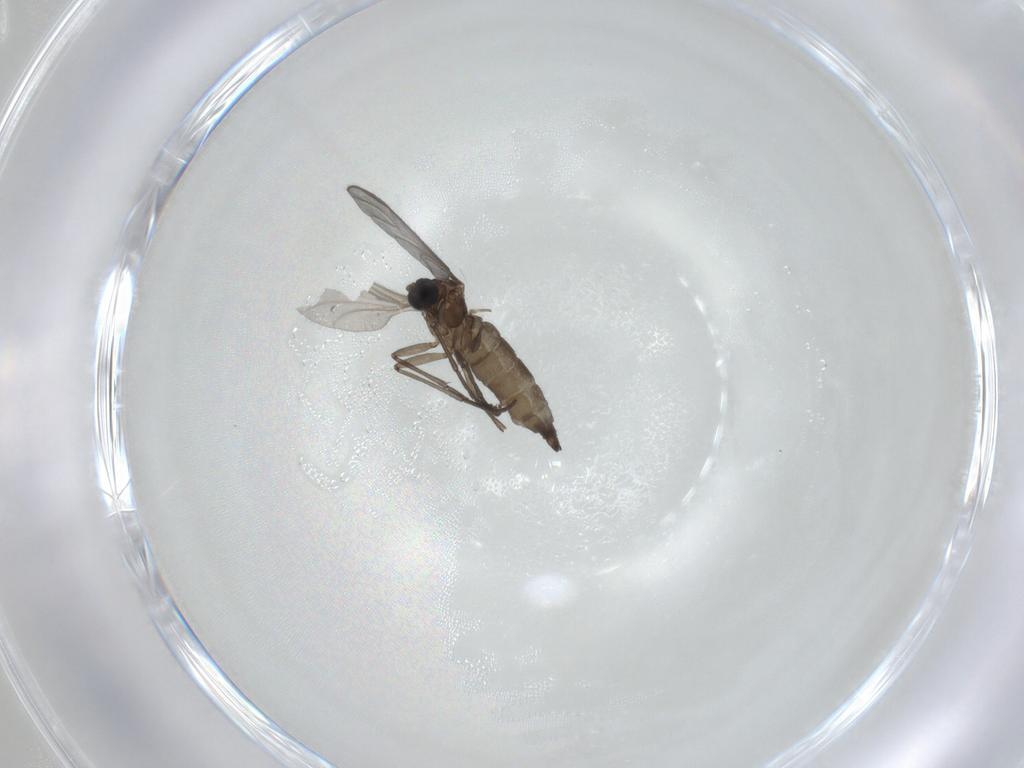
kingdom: Animalia
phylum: Arthropoda
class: Insecta
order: Diptera
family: Sciaridae
